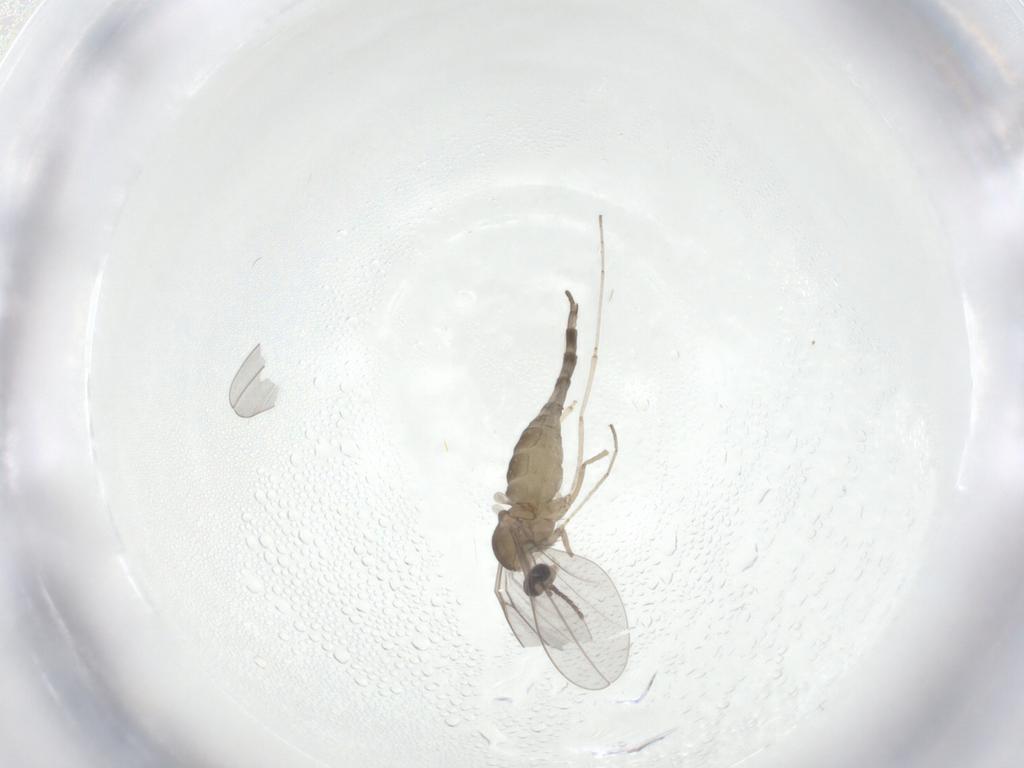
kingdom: Animalia
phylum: Arthropoda
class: Insecta
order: Diptera
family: Cecidomyiidae
